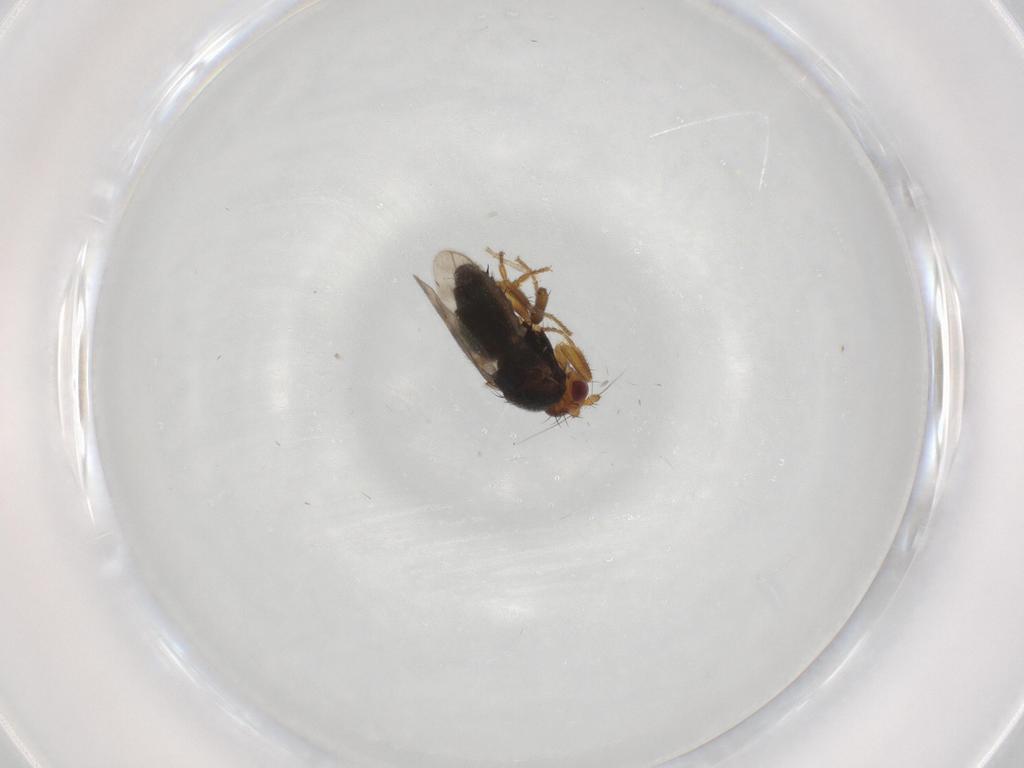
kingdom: Animalia
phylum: Arthropoda
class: Insecta
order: Diptera
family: Sphaeroceridae
